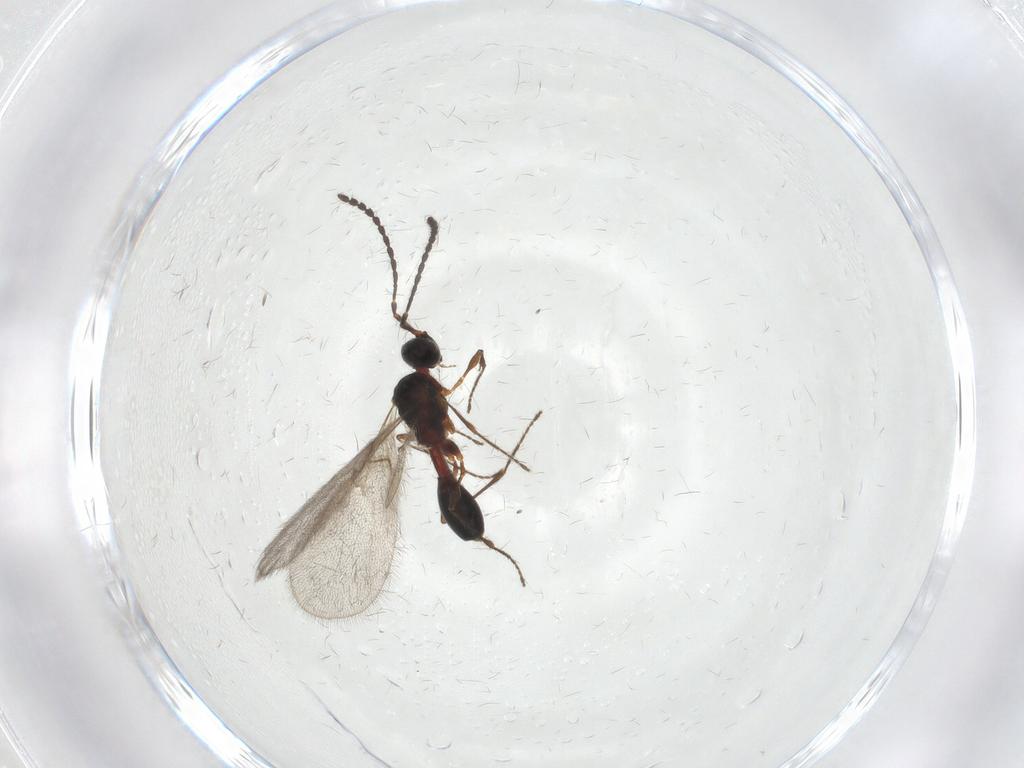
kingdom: Animalia
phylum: Arthropoda
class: Insecta
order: Hymenoptera
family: Diapriidae
